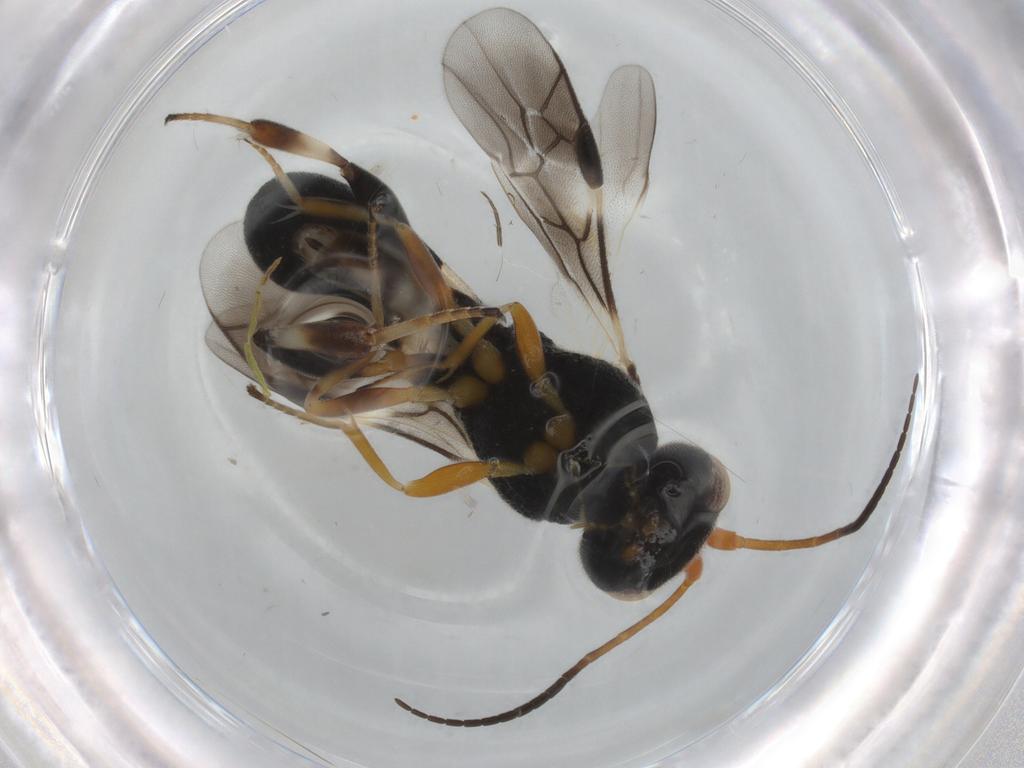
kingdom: Animalia
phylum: Arthropoda
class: Insecta
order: Hymenoptera
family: Braconidae
